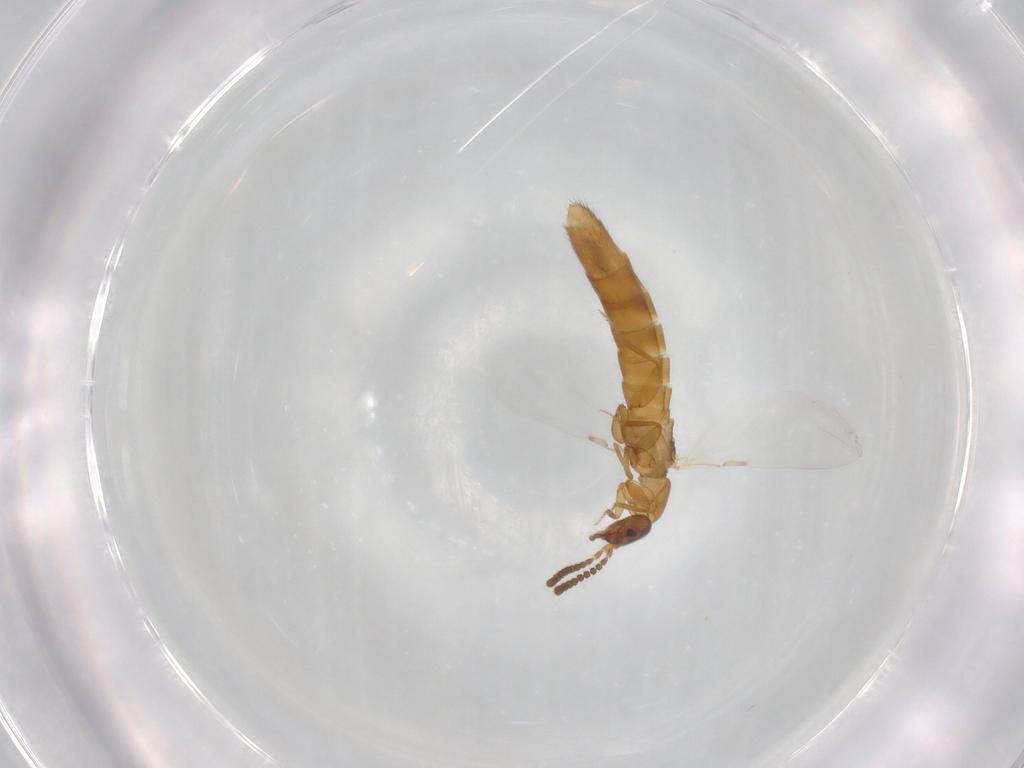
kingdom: Animalia
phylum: Arthropoda
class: Insecta
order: Coleoptera
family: Staphylinidae
